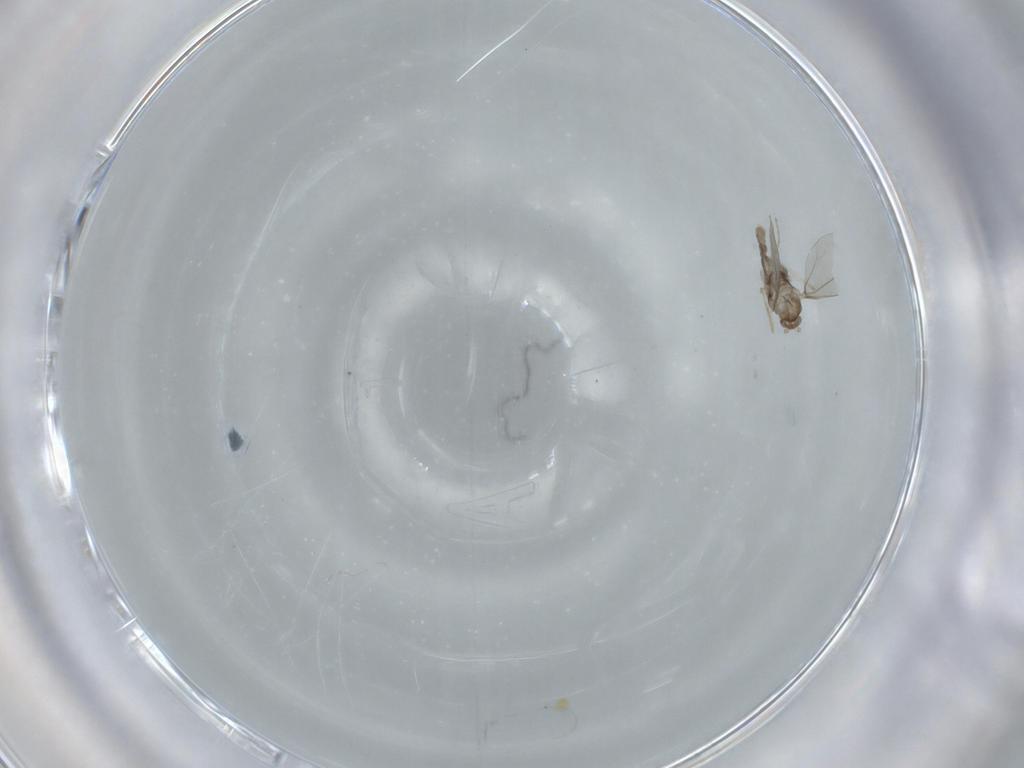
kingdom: Animalia
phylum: Arthropoda
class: Insecta
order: Diptera
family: Cecidomyiidae
